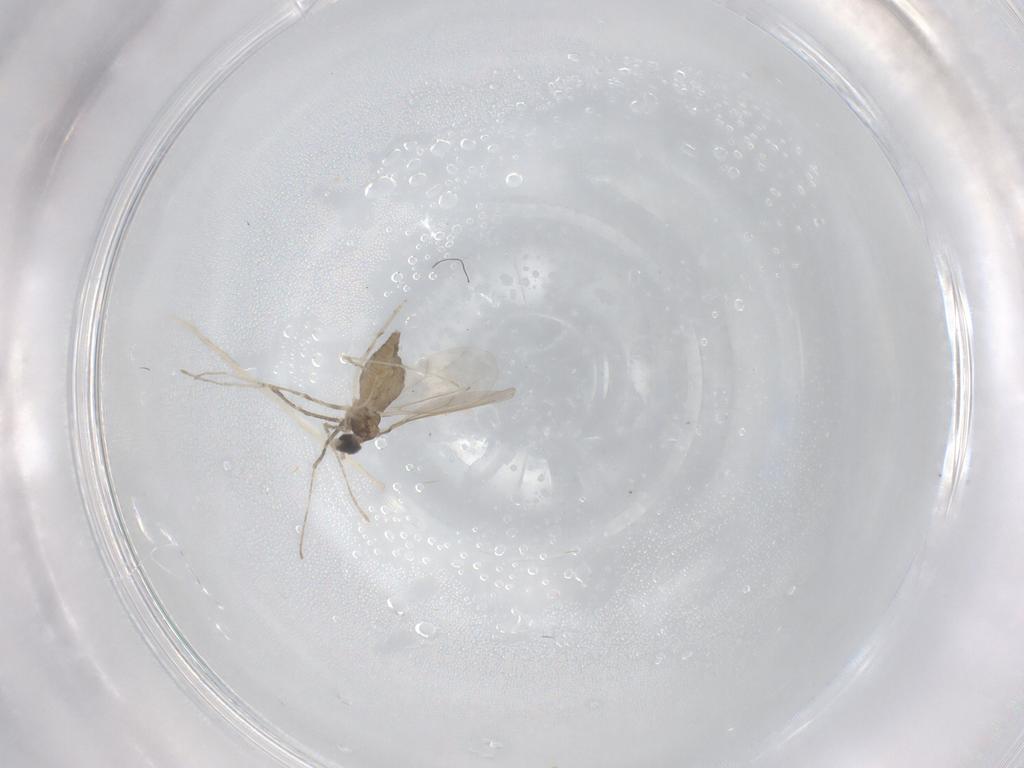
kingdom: Animalia
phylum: Arthropoda
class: Insecta
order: Diptera
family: Cecidomyiidae
